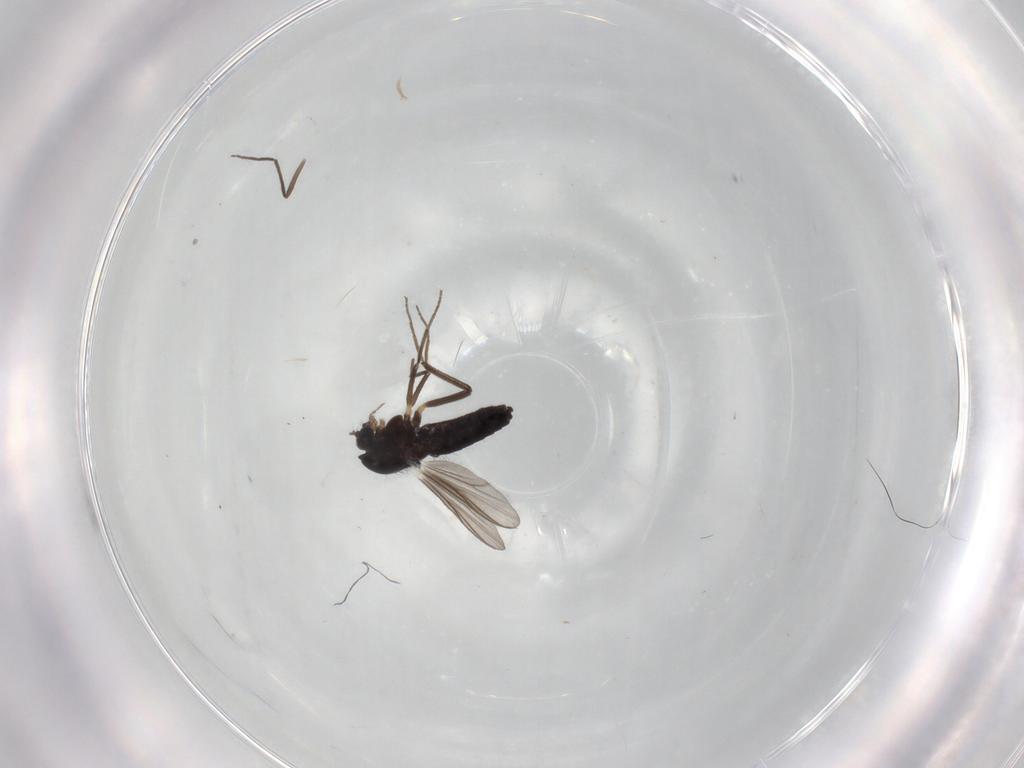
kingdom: Animalia
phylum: Arthropoda
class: Insecta
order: Diptera
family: Chironomidae
